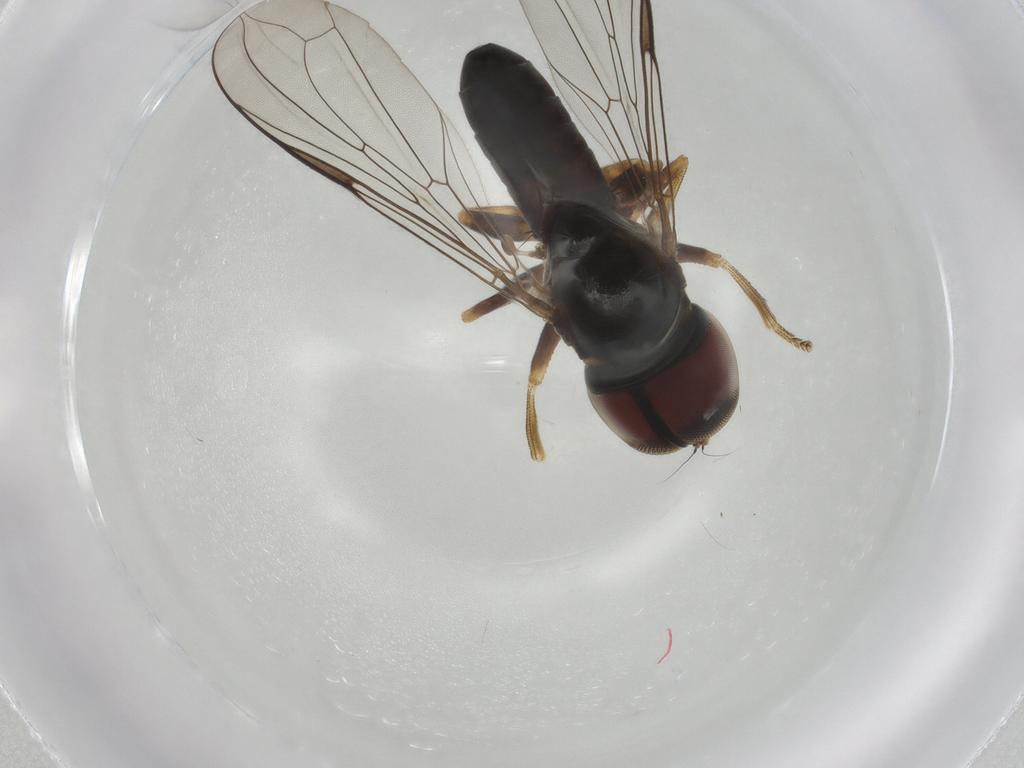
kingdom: Animalia
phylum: Arthropoda
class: Insecta
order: Diptera
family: Pipunculidae
